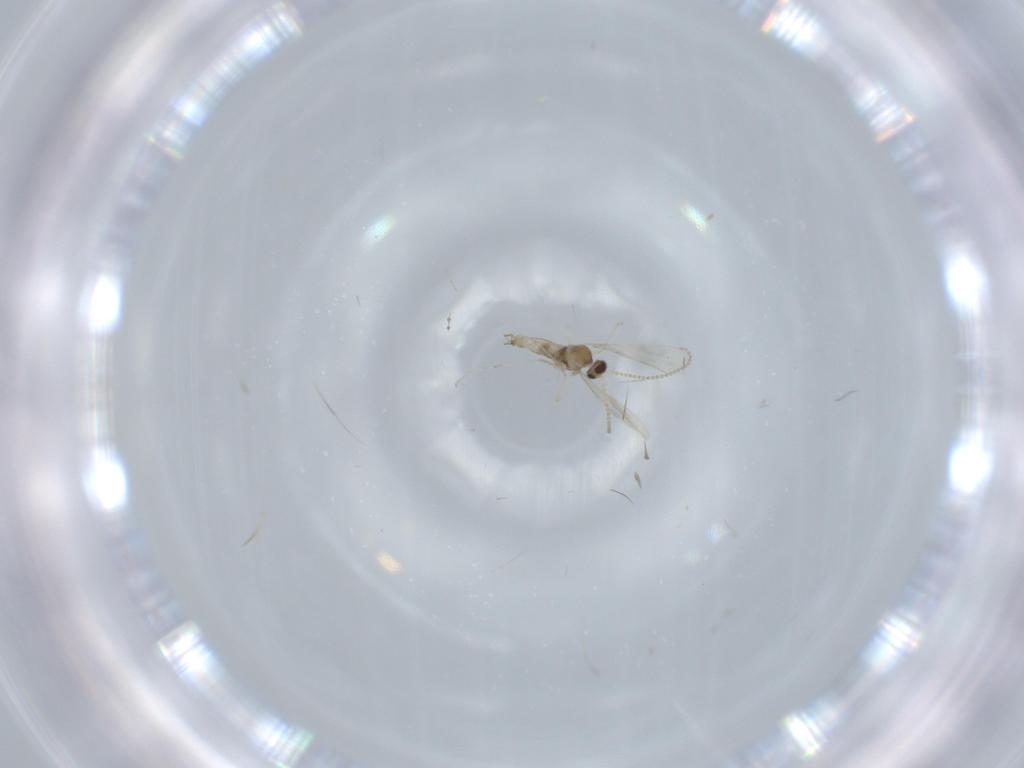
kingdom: Animalia
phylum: Arthropoda
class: Insecta
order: Diptera
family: Cecidomyiidae
